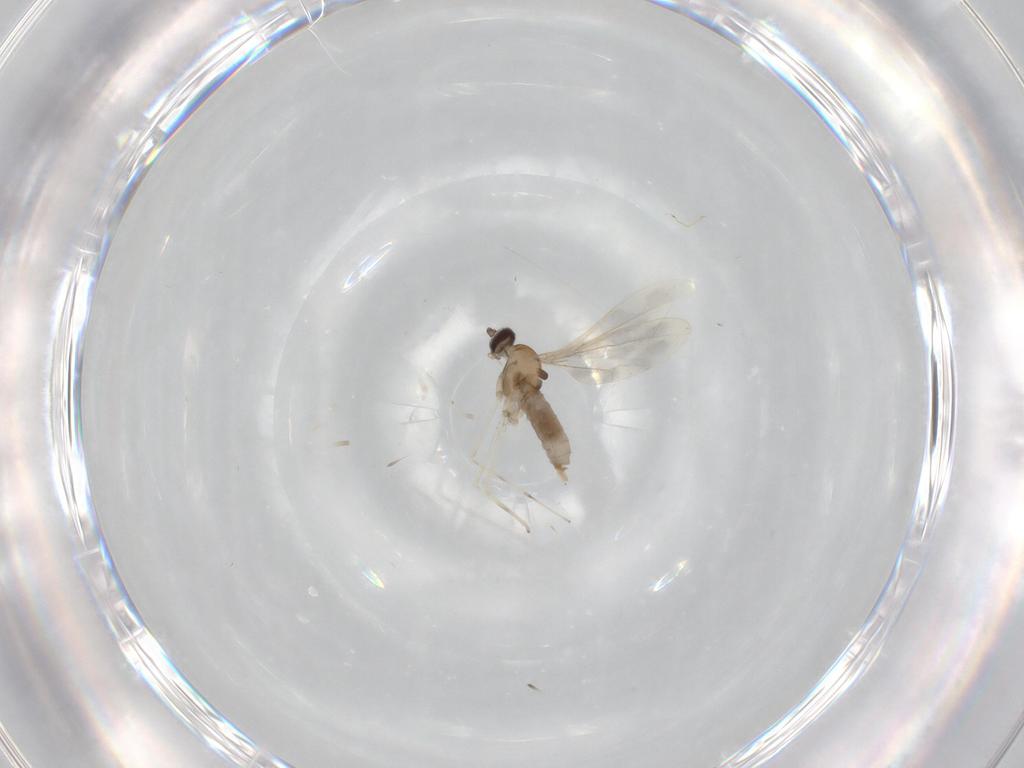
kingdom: Animalia
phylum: Arthropoda
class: Insecta
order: Diptera
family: Cecidomyiidae
